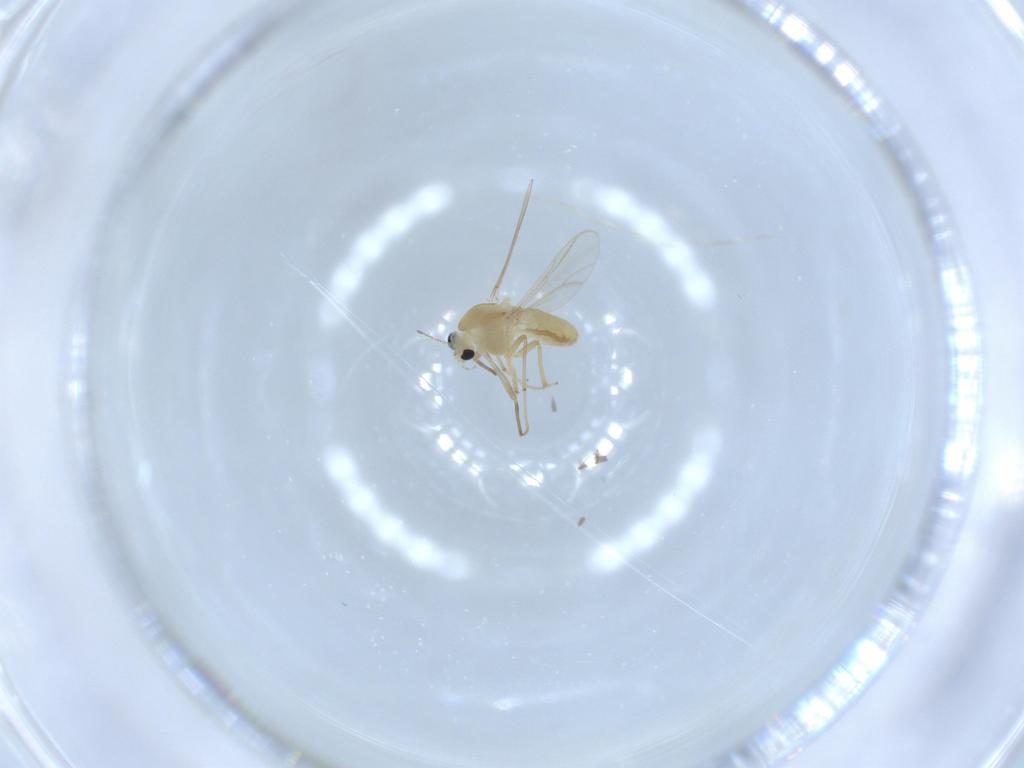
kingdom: Animalia
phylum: Arthropoda
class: Insecta
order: Diptera
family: Chironomidae
